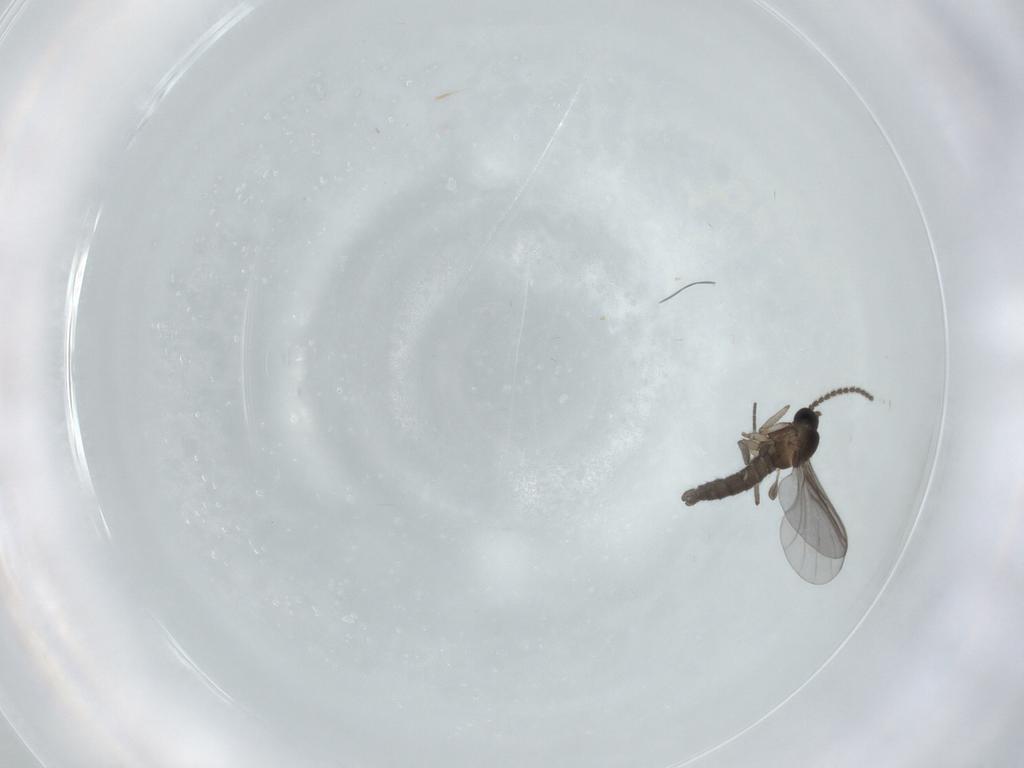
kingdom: Animalia
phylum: Arthropoda
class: Insecta
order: Diptera
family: Sciaridae
